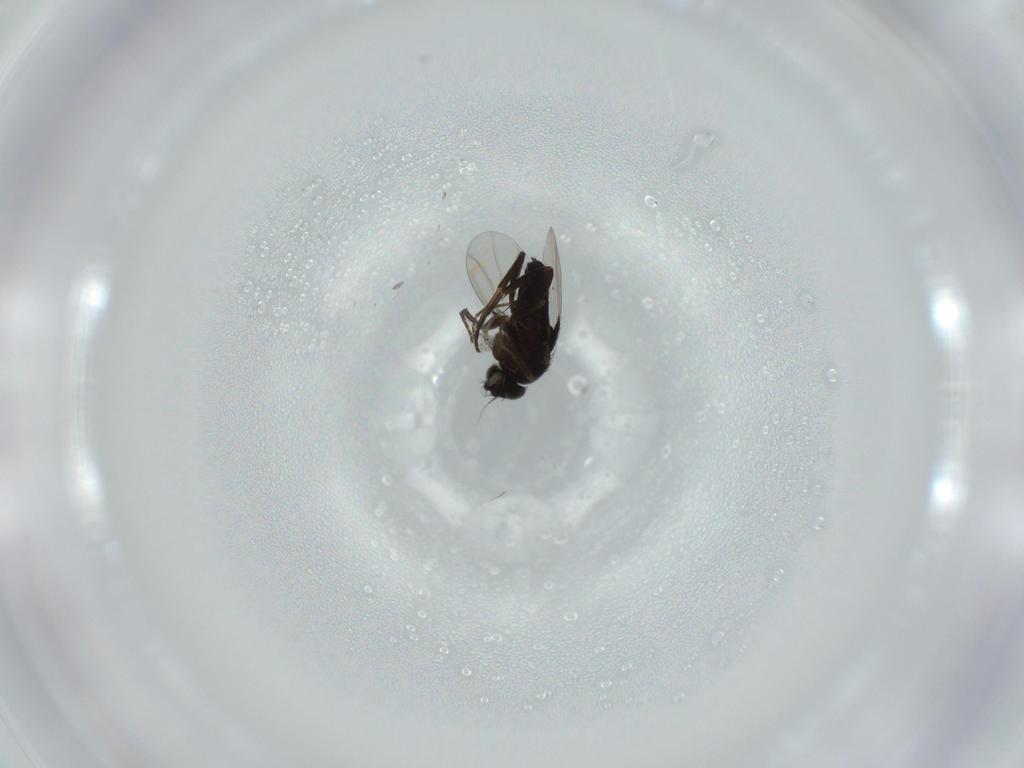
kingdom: Animalia
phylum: Arthropoda
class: Insecta
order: Diptera
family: Phoridae
